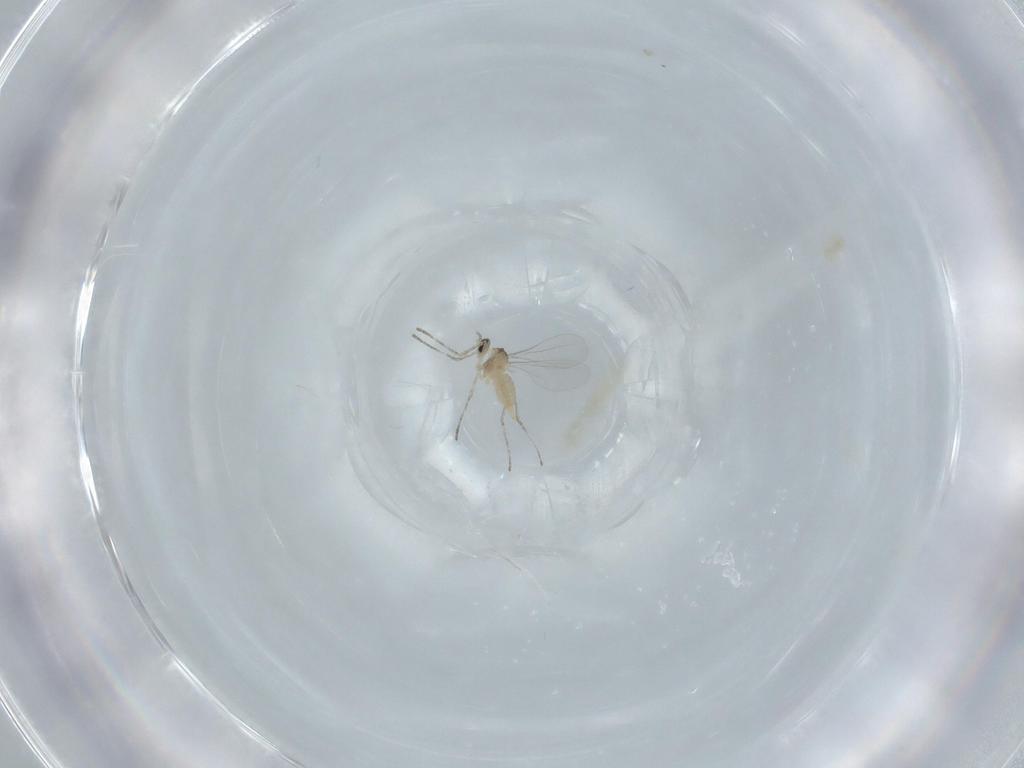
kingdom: Animalia
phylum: Arthropoda
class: Insecta
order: Diptera
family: Cecidomyiidae
